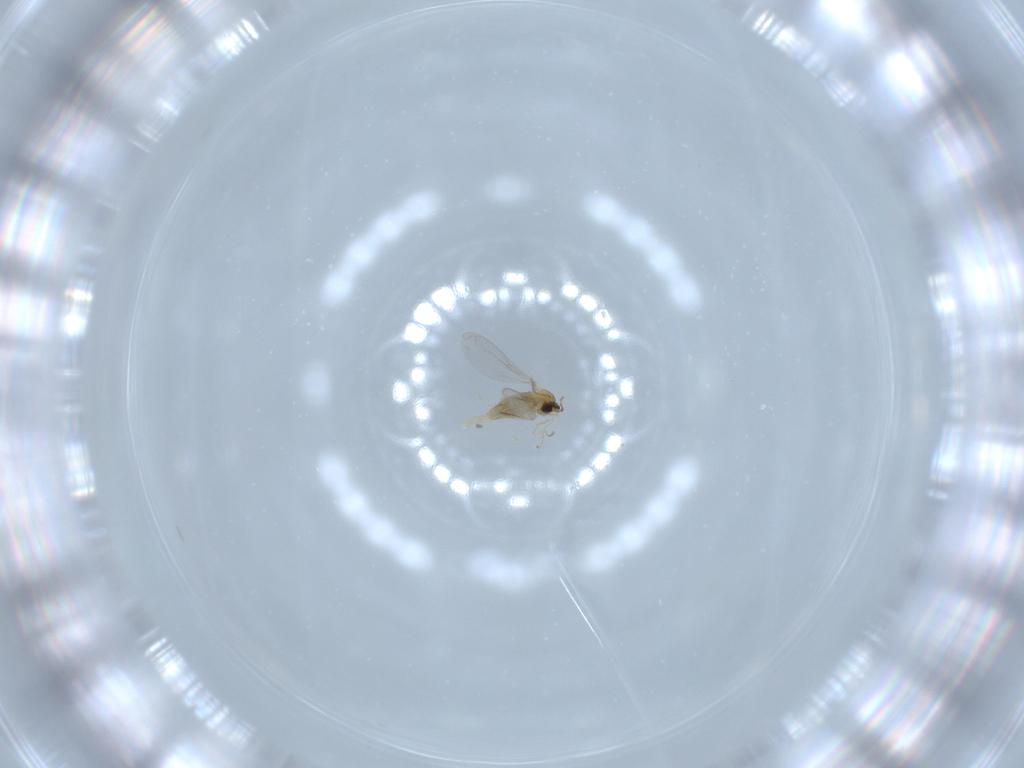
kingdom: Animalia
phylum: Arthropoda
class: Insecta
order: Diptera
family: Cecidomyiidae
